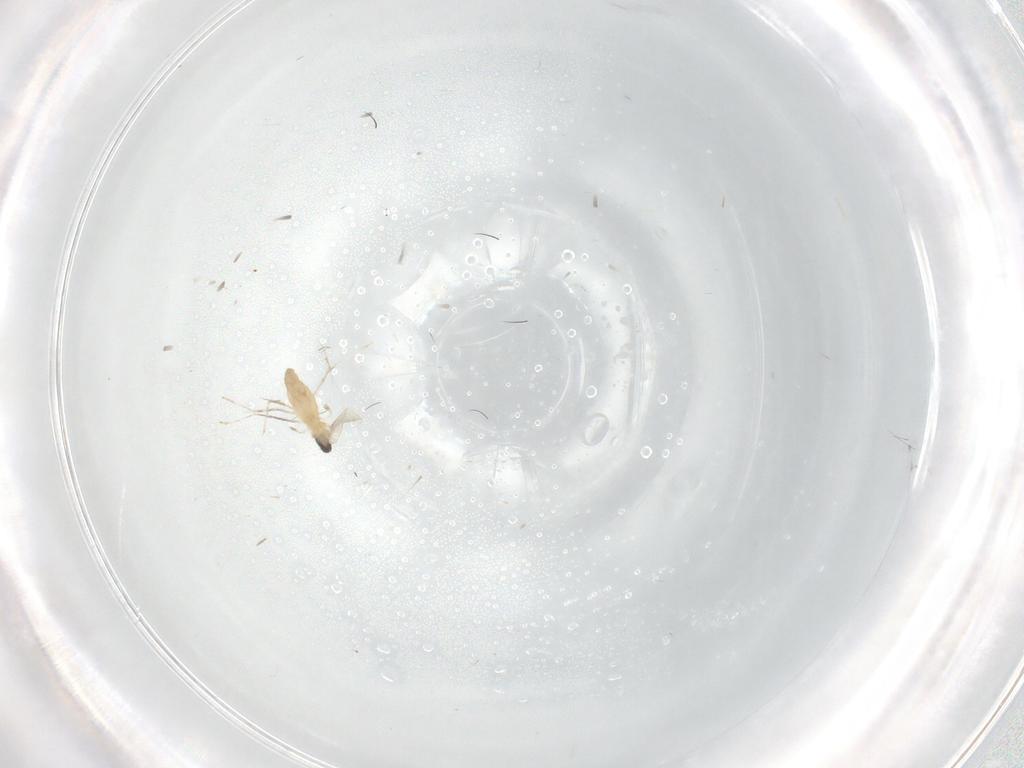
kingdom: Animalia
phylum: Arthropoda
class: Insecta
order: Diptera
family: Cecidomyiidae
